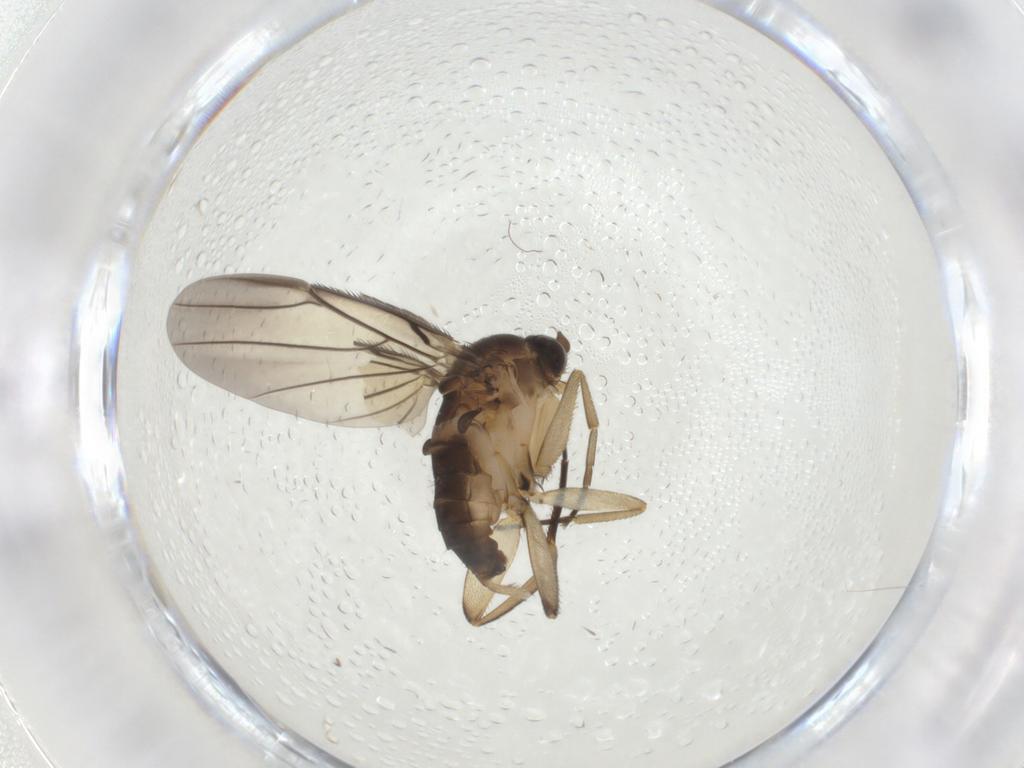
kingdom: Animalia
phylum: Arthropoda
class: Insecta
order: Diptera
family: Phoridae
